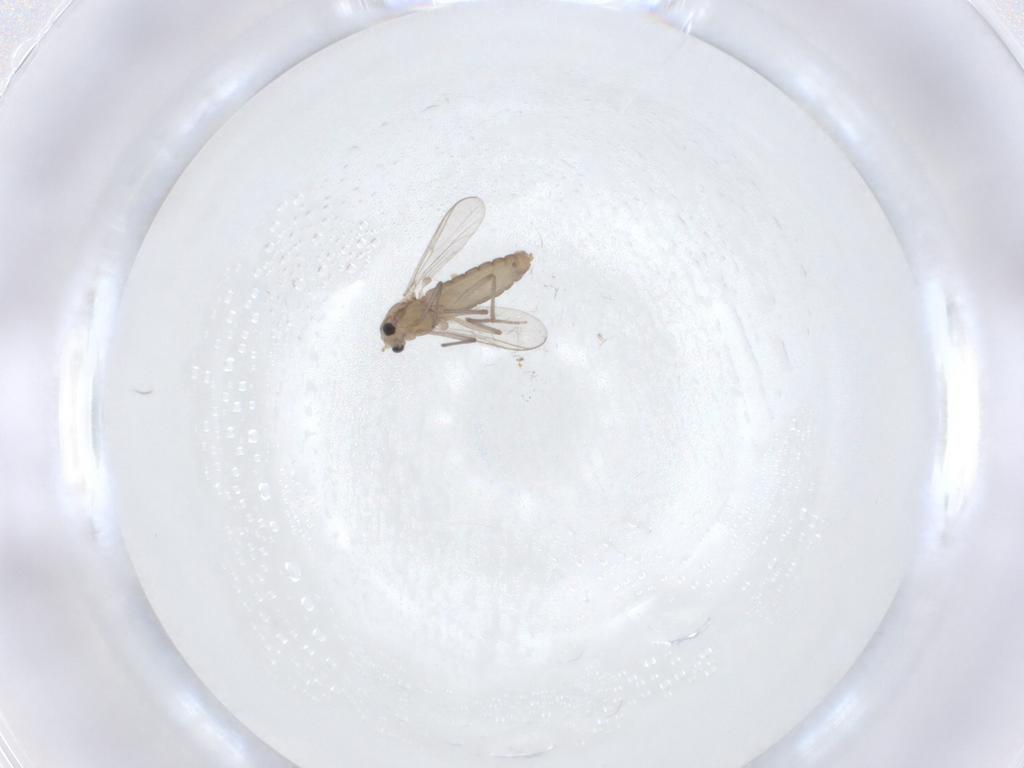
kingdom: Animalia
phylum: Arthropoda
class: Insecta
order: Diptera
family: Chironomidae
